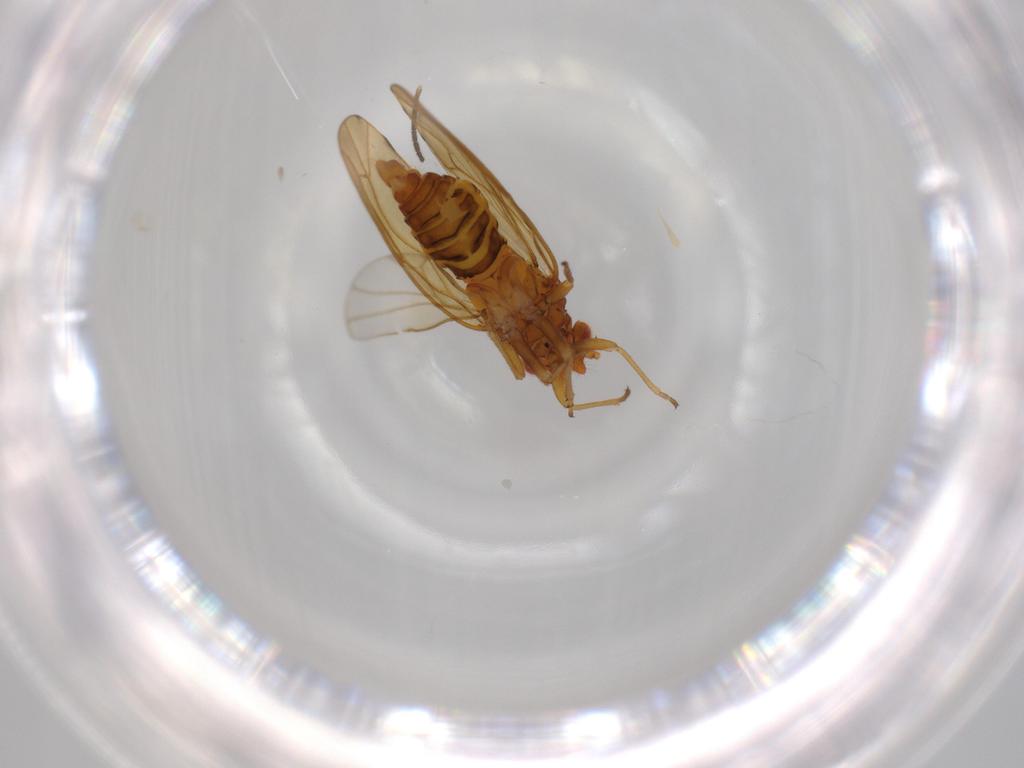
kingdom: Animalia
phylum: Arthropoda
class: Insecta
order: Hemiptera
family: Psylloidea_incertae_sedis
